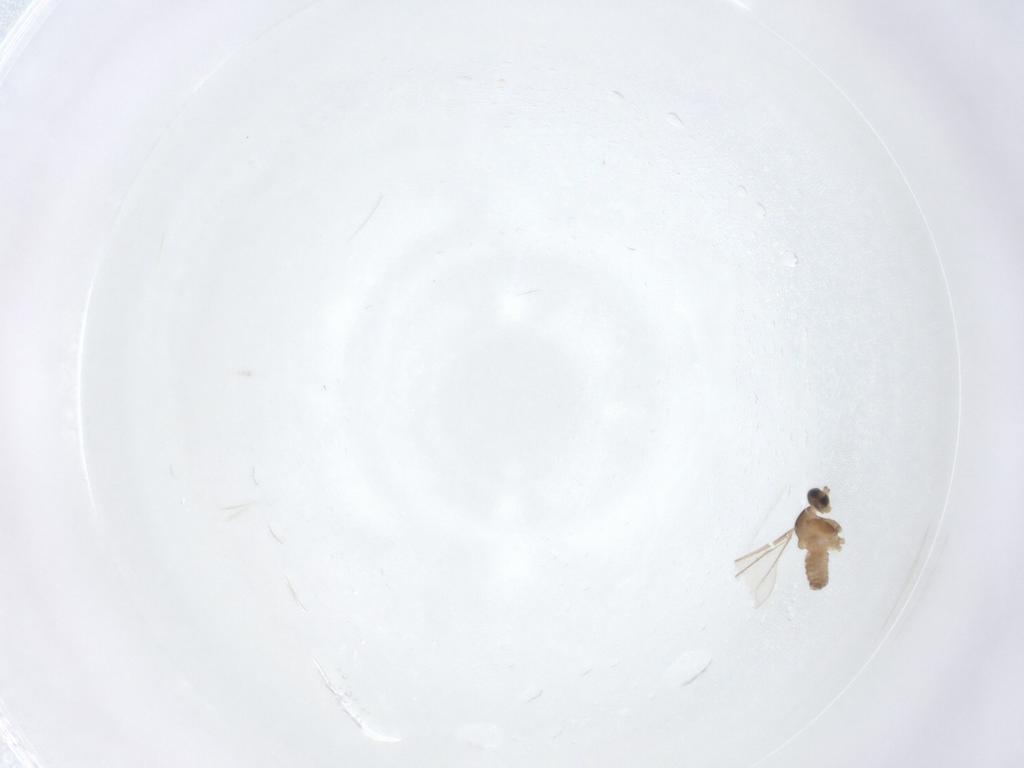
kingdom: Animalia
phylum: Arthropoda
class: Insecta
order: Diptera
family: Cecidomyiidae
